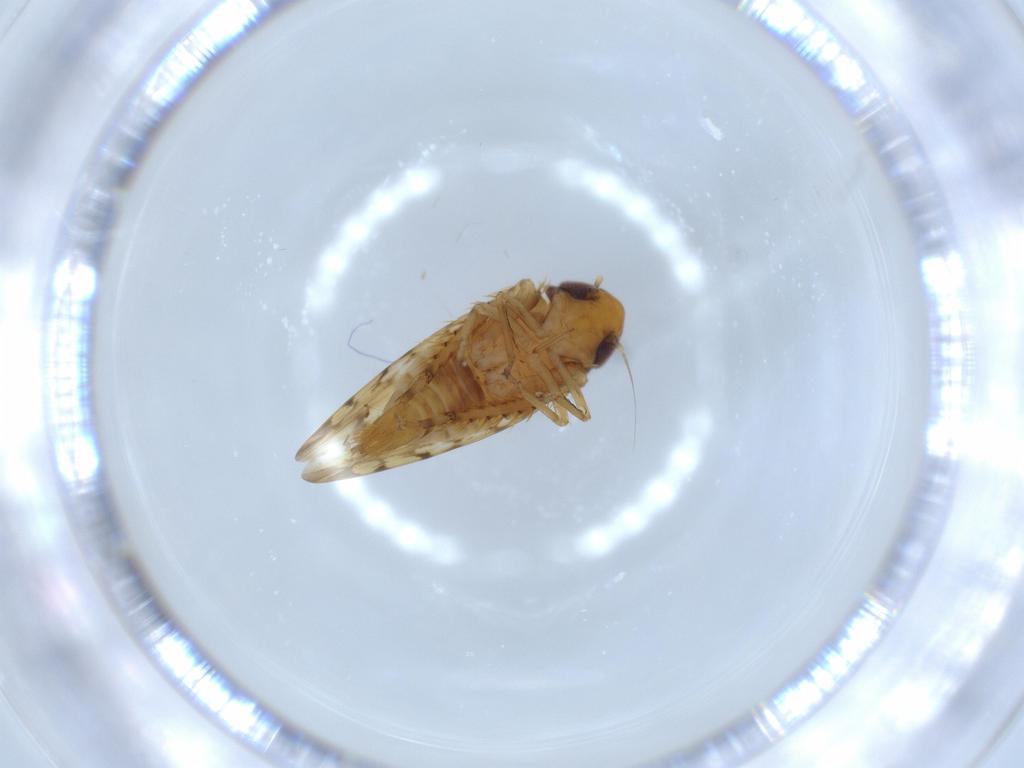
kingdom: Animalia
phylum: Arthropoda
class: Insecta
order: Hemiptera
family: Cicadellidae
